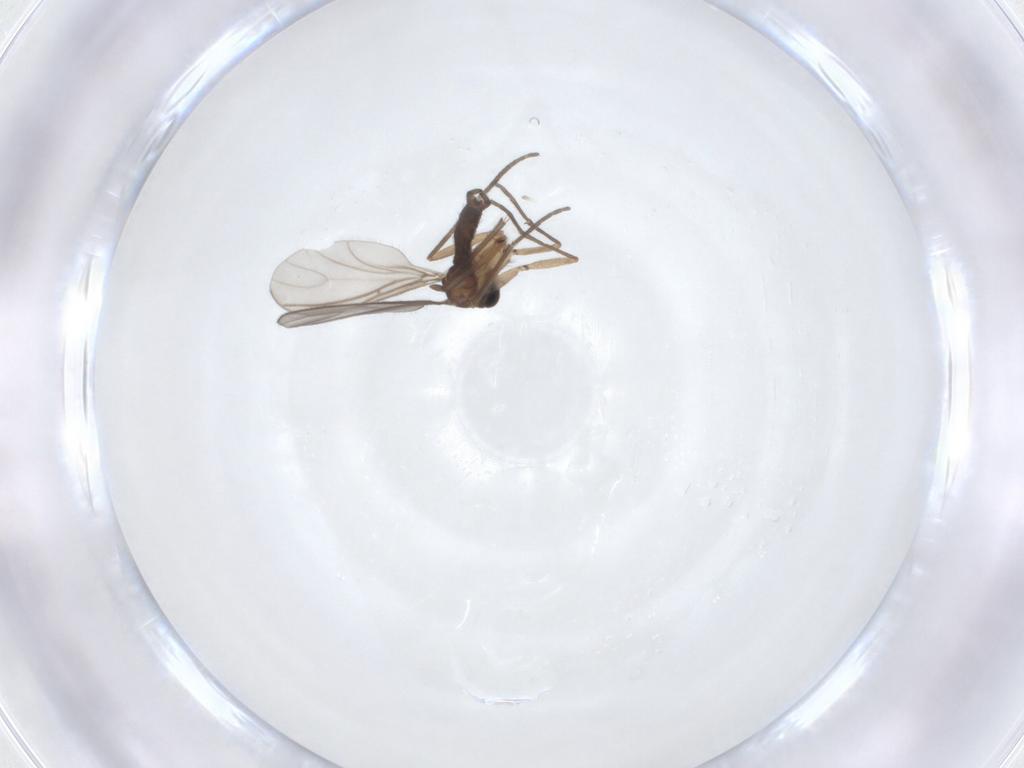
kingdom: Animalia
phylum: Arthropoda
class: Insecta
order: Diptera
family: Sciaridae
